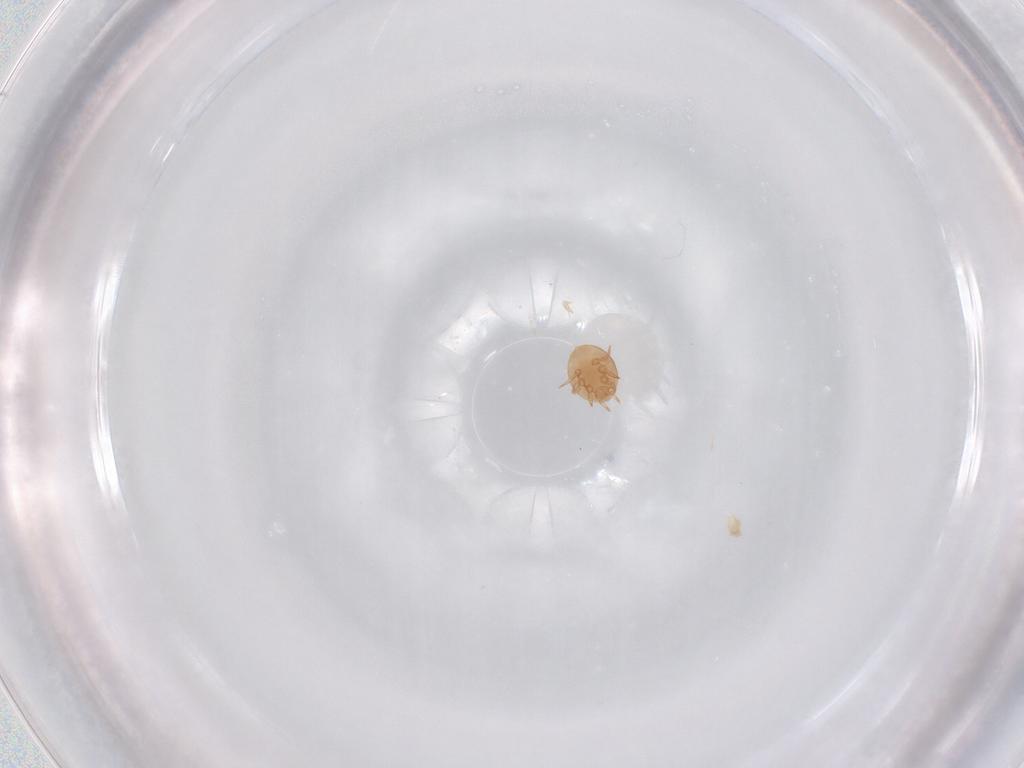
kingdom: Animalia
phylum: Arthropoda
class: Arachnida
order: Mesostigmata
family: Trematuridae
